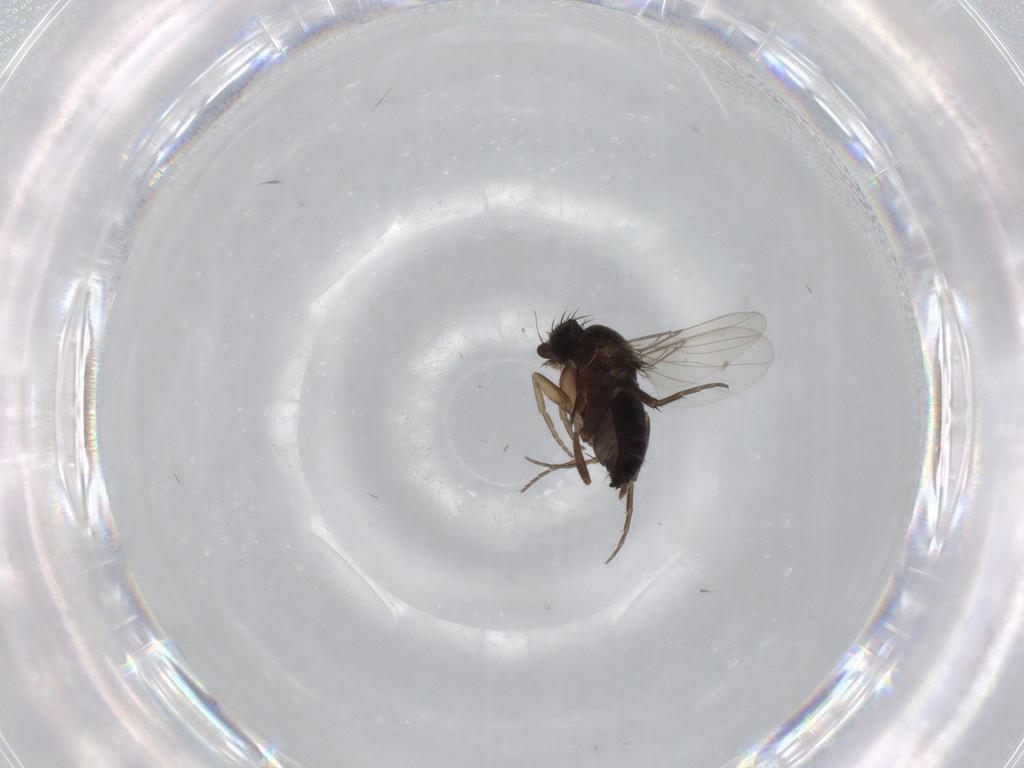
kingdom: Animalia
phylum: Arthropoda
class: Insecta
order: Diptera
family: Phoridae
